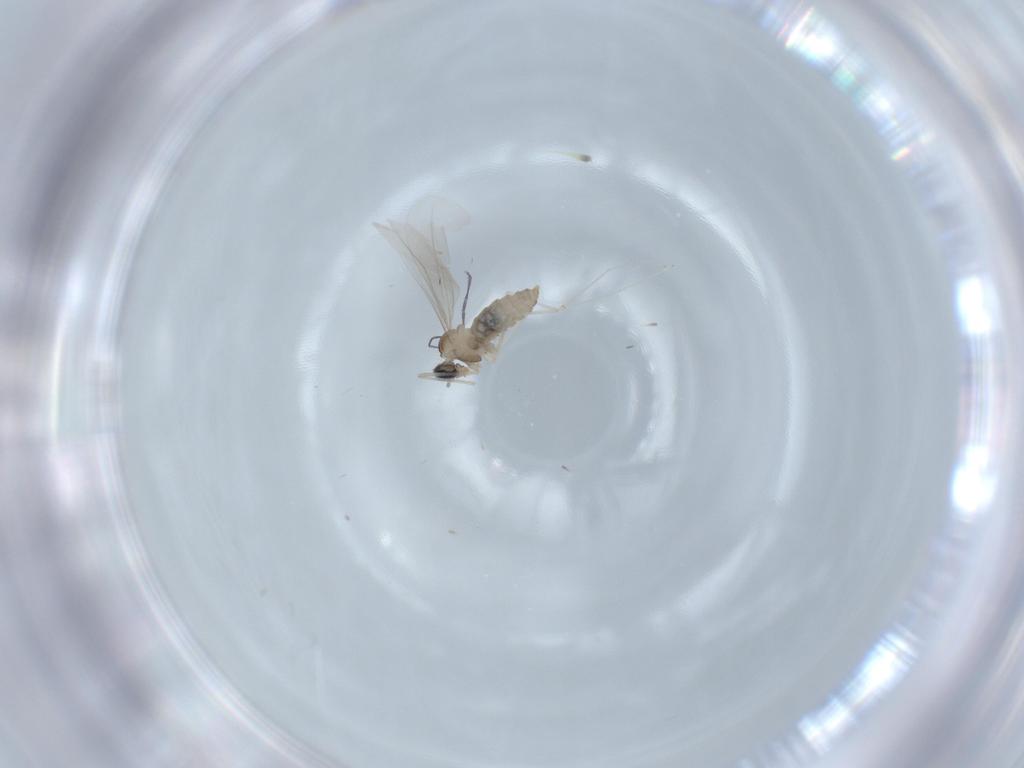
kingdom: Animalia
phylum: Arthropoda
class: Insecta
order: Diptera
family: Cecidomyiidae
